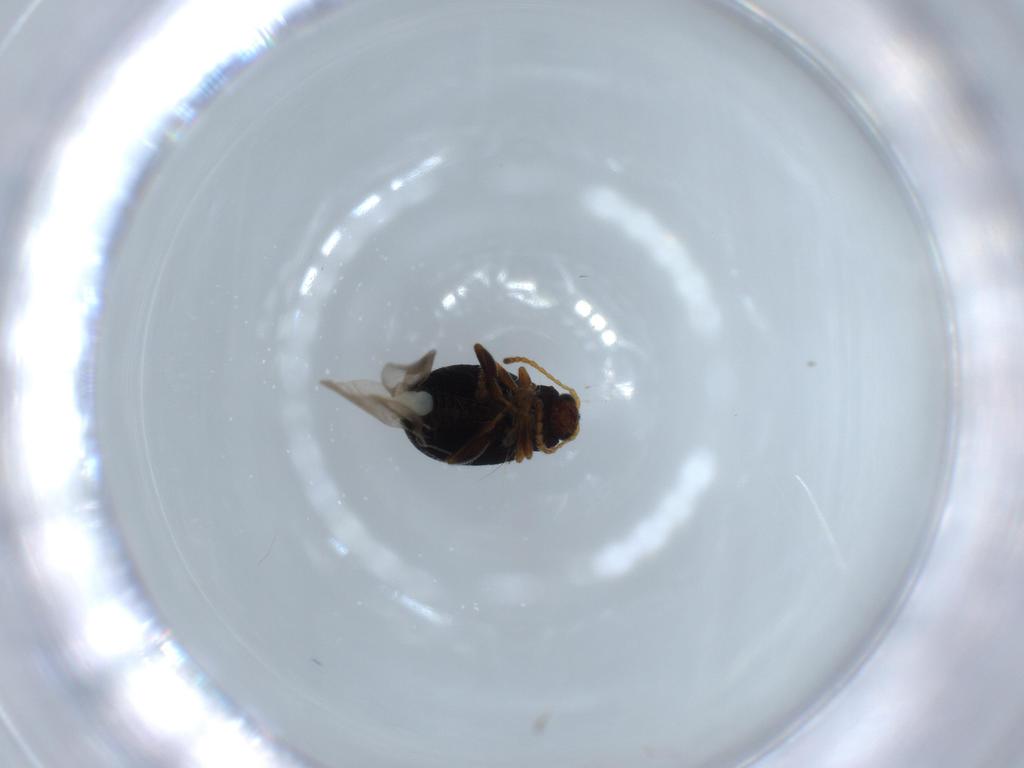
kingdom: Animalia
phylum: Arthropoda
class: Insecta
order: Coleoptera
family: Chrysomelidae
